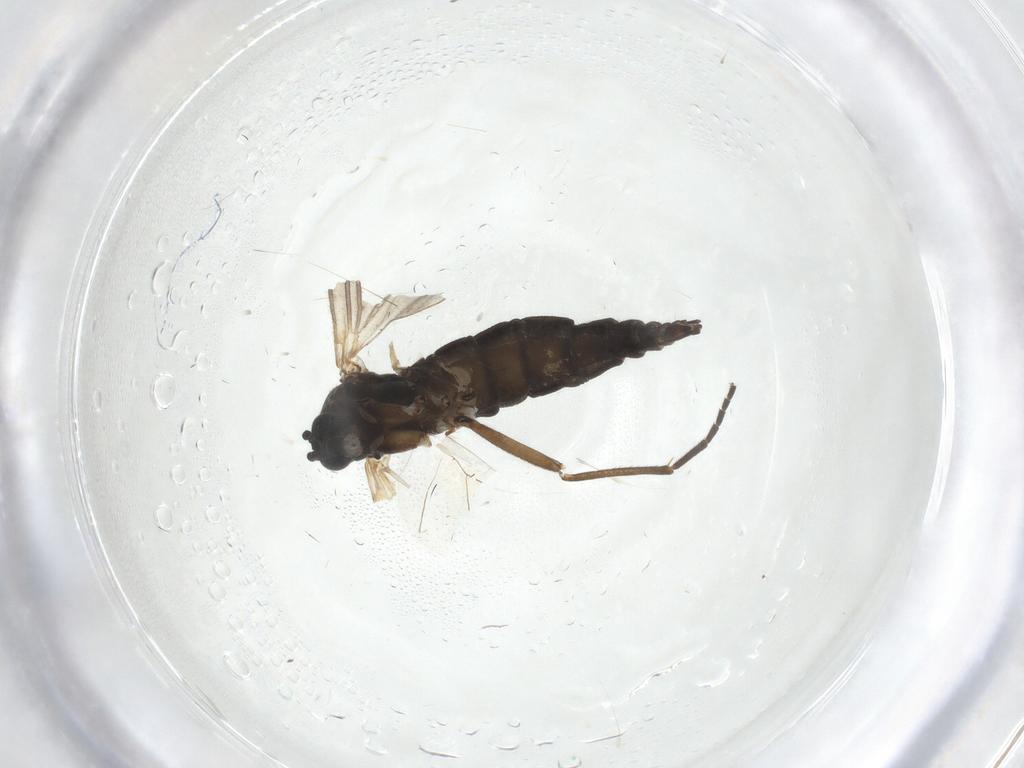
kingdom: Animalia
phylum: Arthropoda
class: Insecta
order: Diptera
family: Sciaridae
